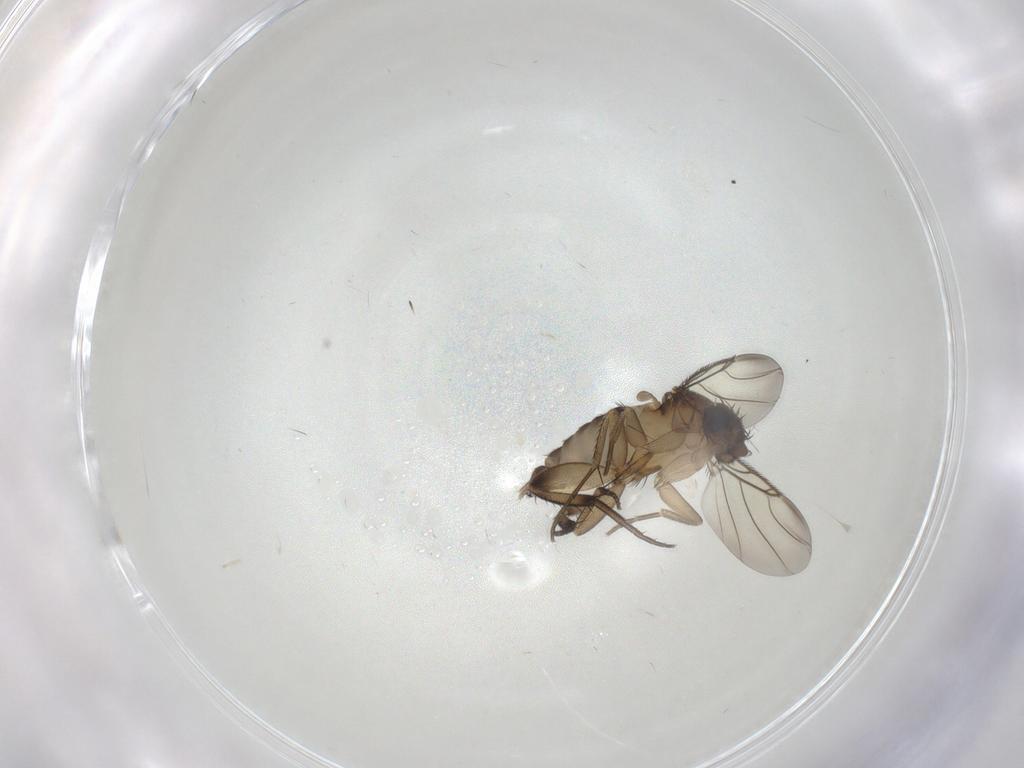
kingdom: Animalia
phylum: Arthropoda
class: Insecta
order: Diptera
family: Phoridae
